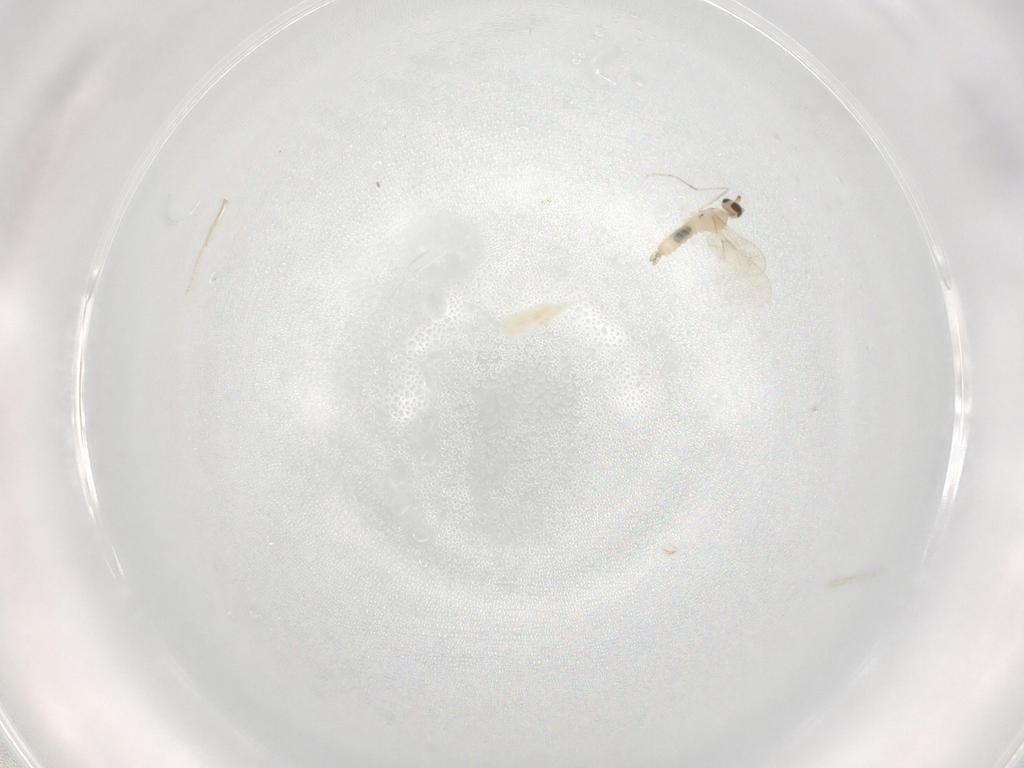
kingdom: Animalia
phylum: Arthropoda
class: Insecta
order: Diptera
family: Cecidomyiidae
